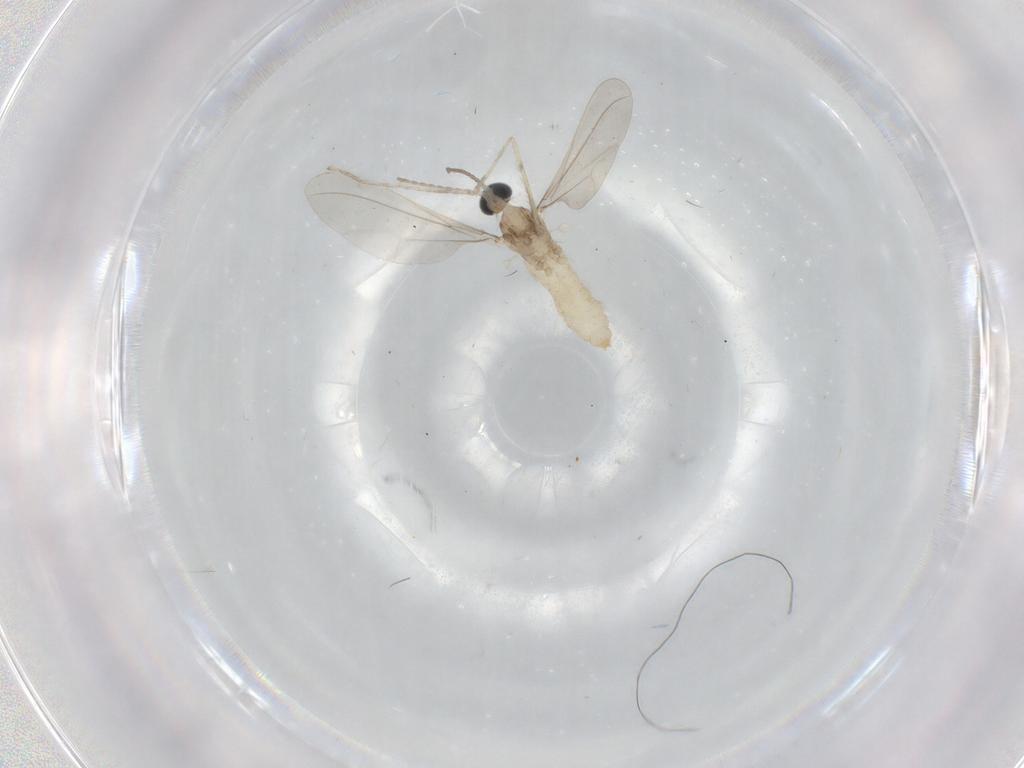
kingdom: Animalia
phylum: Arthropoda
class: Insecta
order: Diptera
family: Cecidomyiidae
